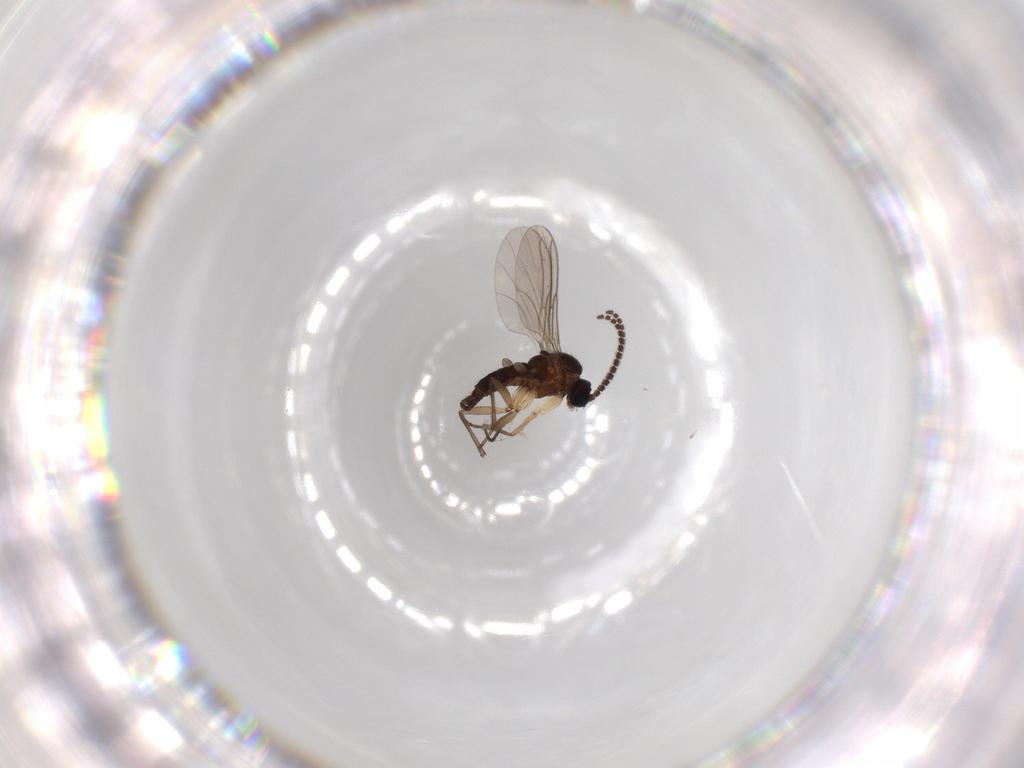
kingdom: Animalia
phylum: Arthropoda
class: Insecta
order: Diptera
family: Sciaridae
